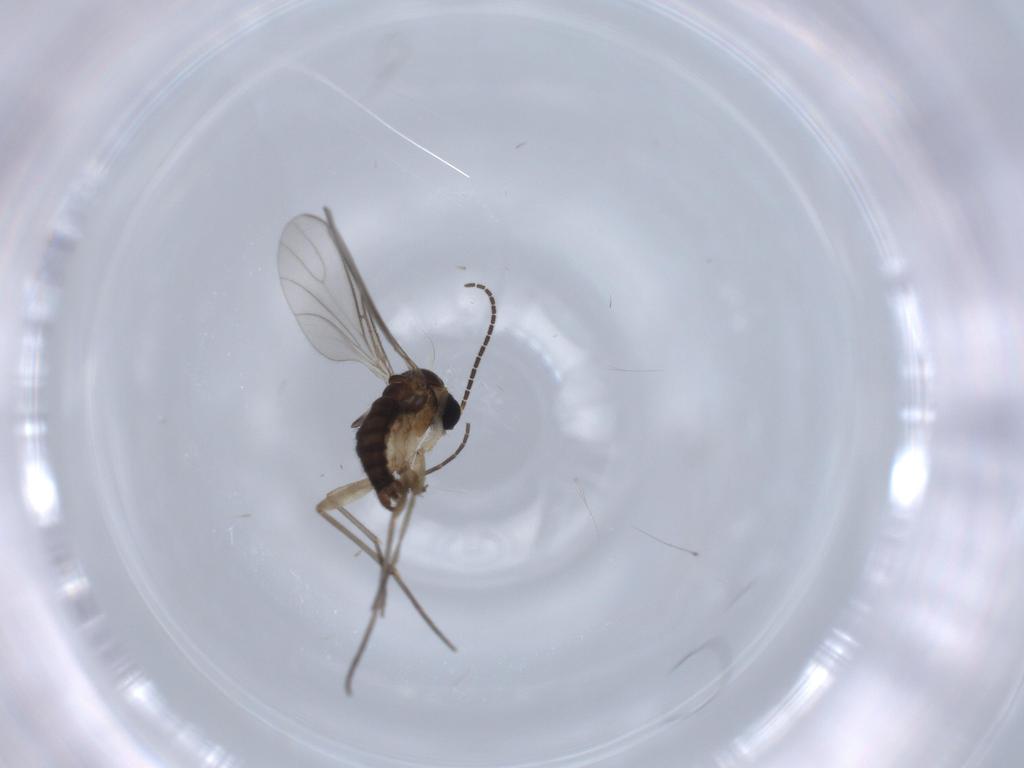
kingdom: Animalia
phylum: Arthropoda
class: Insecta
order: Diptera
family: Sciaridae
